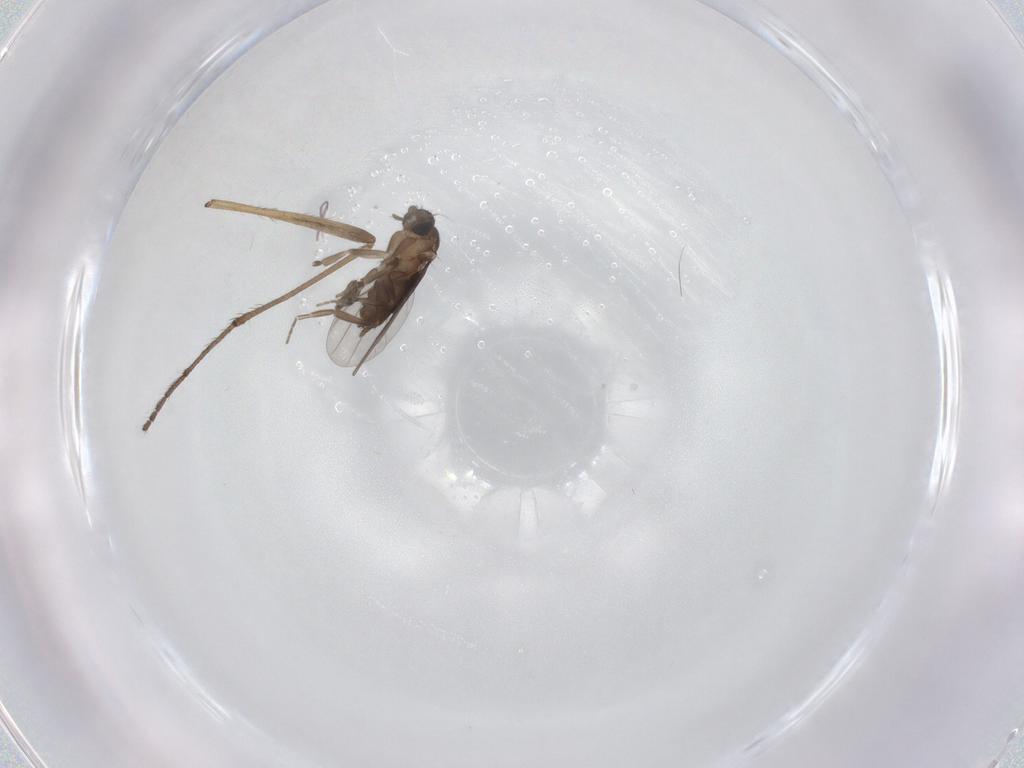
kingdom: Animalia
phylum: Arthropoda
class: Insecta
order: Diptera
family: Phoridae
